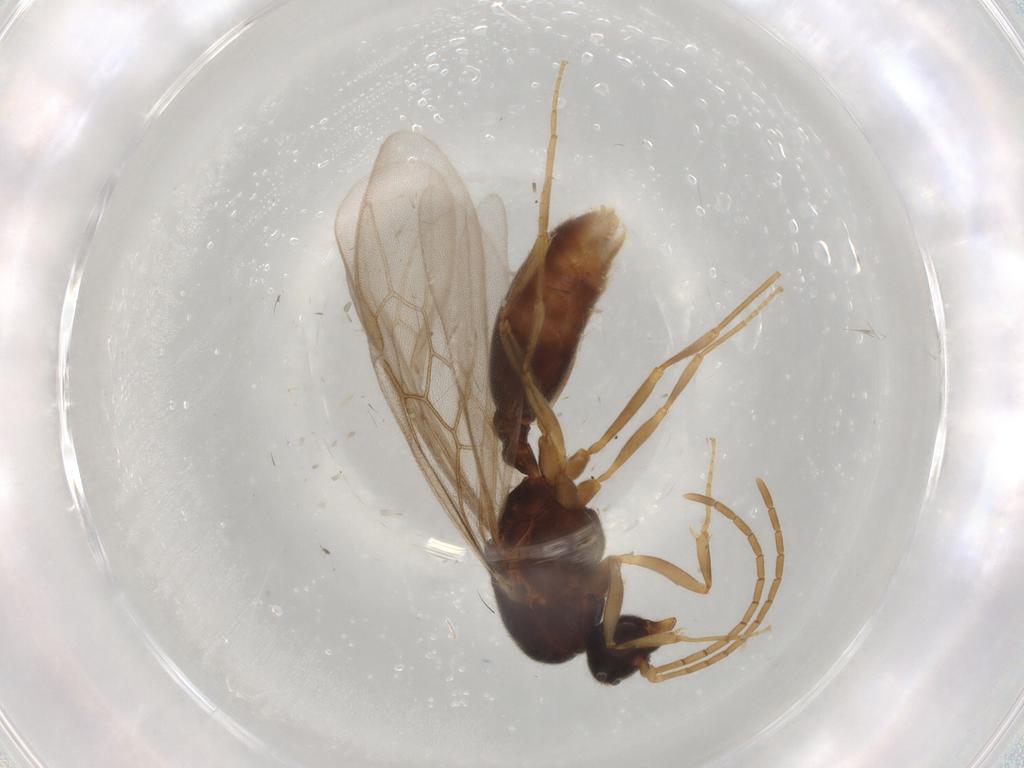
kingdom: Animalia
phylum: Arthropoda
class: Insecta
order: Hymenoptera
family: Formicidae
